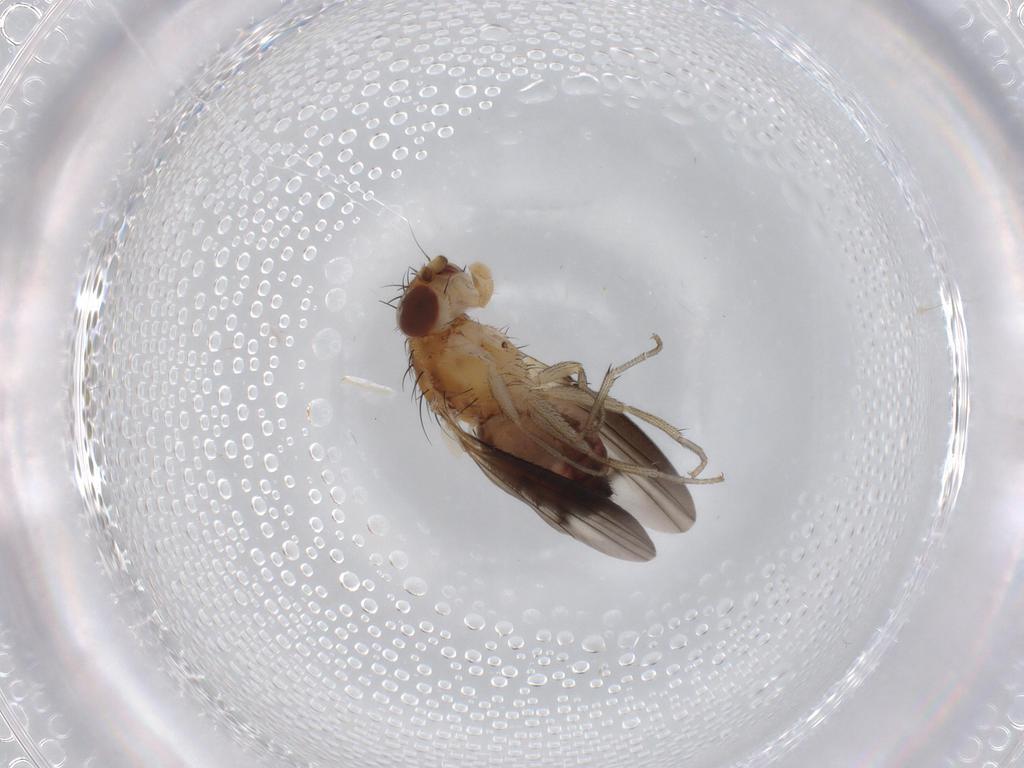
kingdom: Animalia
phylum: Arthropoda
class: Insecta
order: Diptera
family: Heleomyzidae
